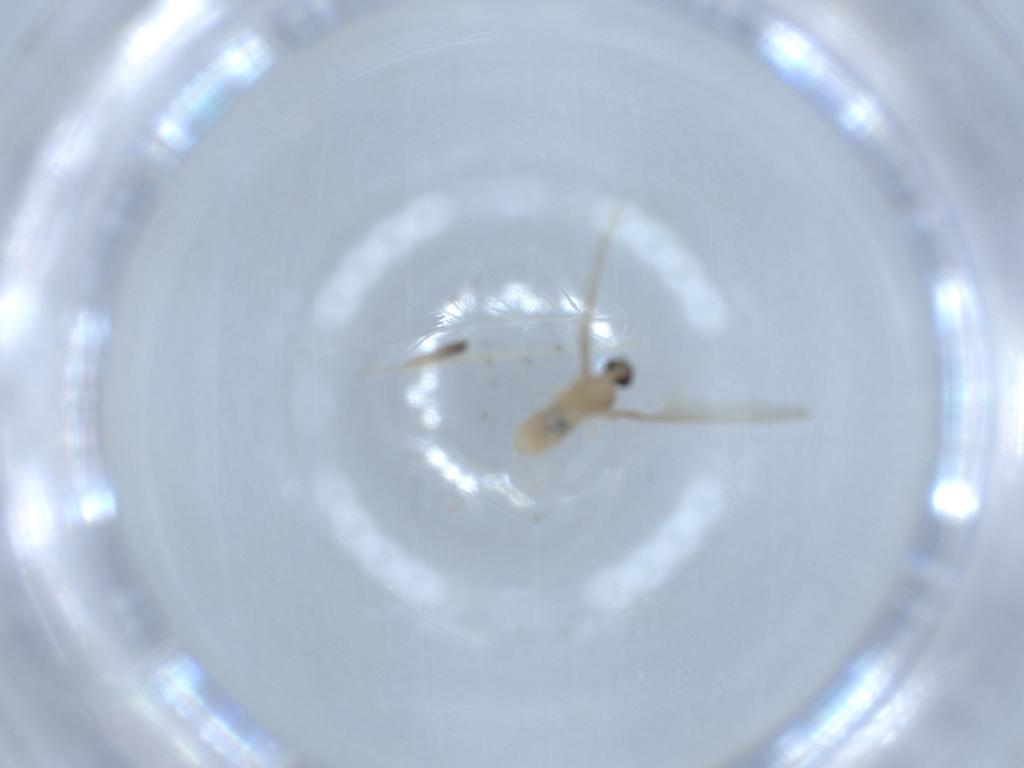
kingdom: Animalia
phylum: Arthropoda
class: Insecta
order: Diptera
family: Cecidomyiidae
